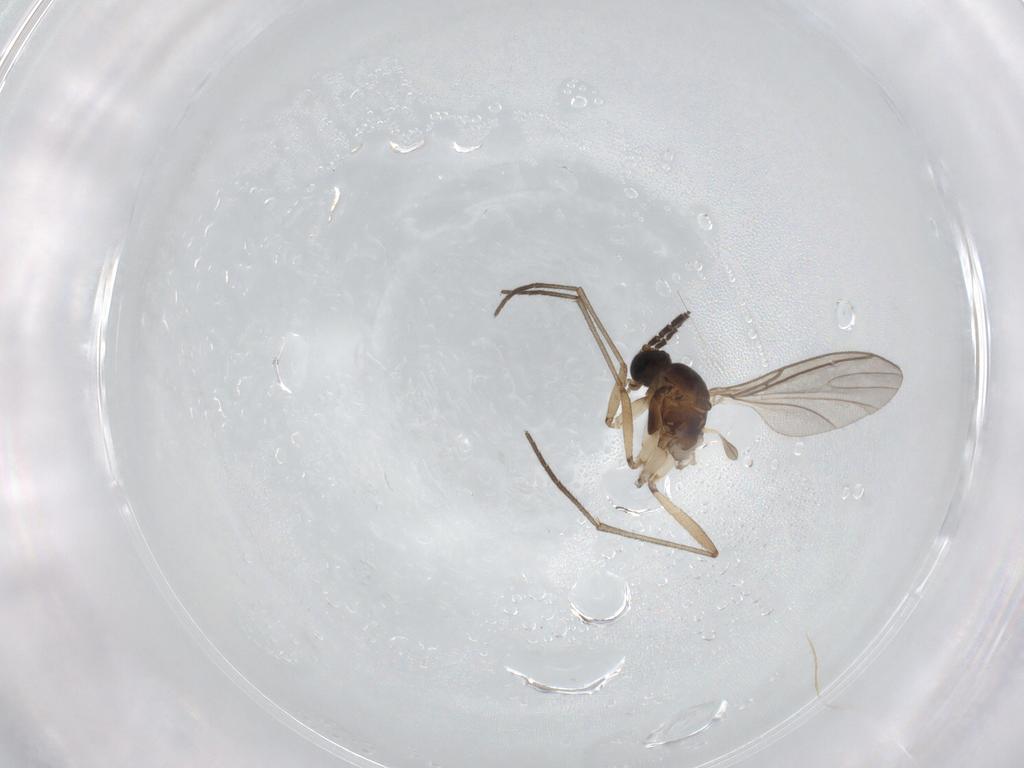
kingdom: Animalia
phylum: Arthropoda
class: Insecta
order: Diptera
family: Sciaridae
